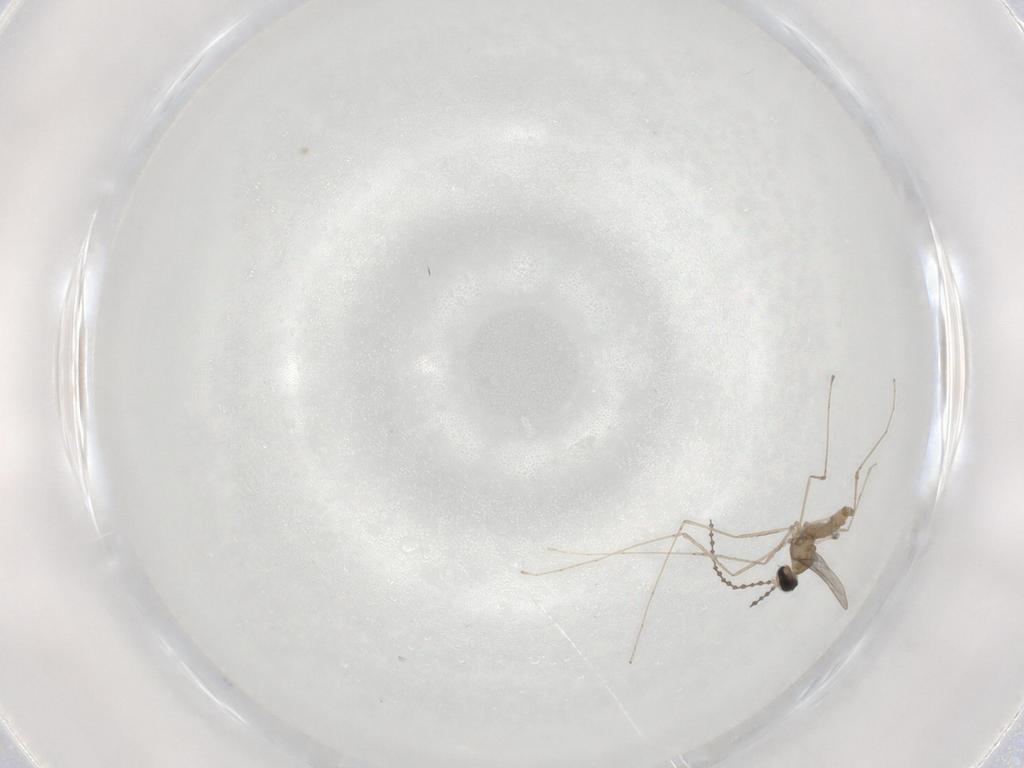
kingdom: Animalia
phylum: Arthropoda
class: Insecta
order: Diptera
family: Cecidomyiidae
